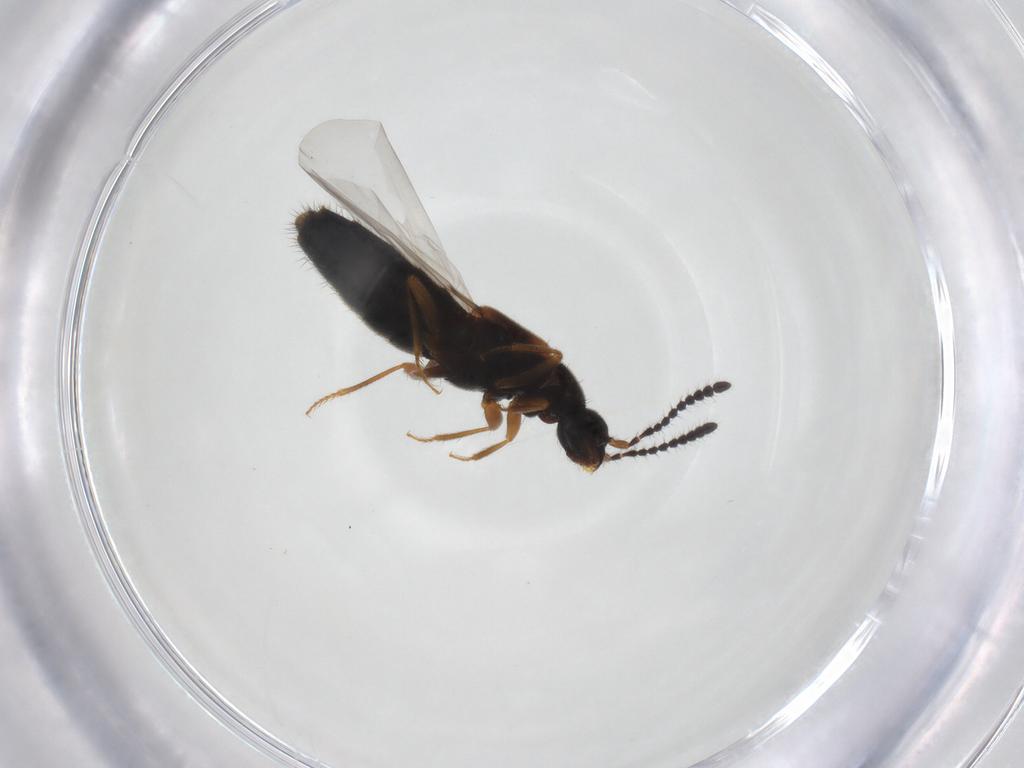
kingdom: Animalia
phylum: Arthropoda
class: Insecta
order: Coleoptera
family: Staphylinidae
